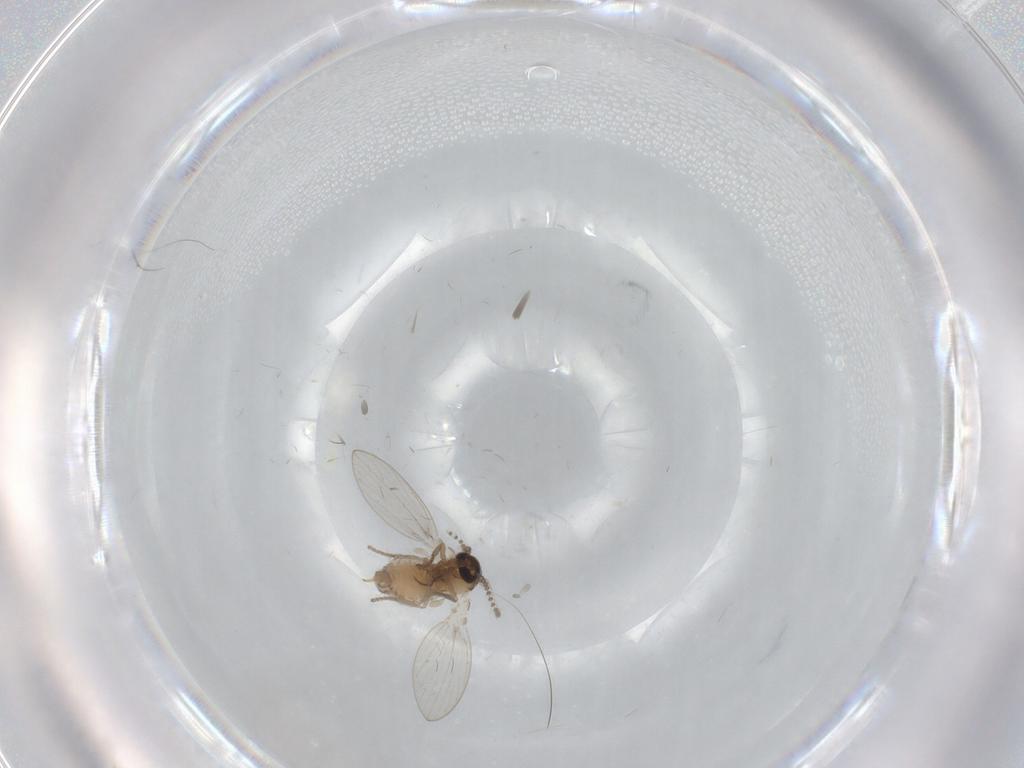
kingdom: Animalia
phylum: Arthropoda
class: Insecta
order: Diptera
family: Psychodidae
